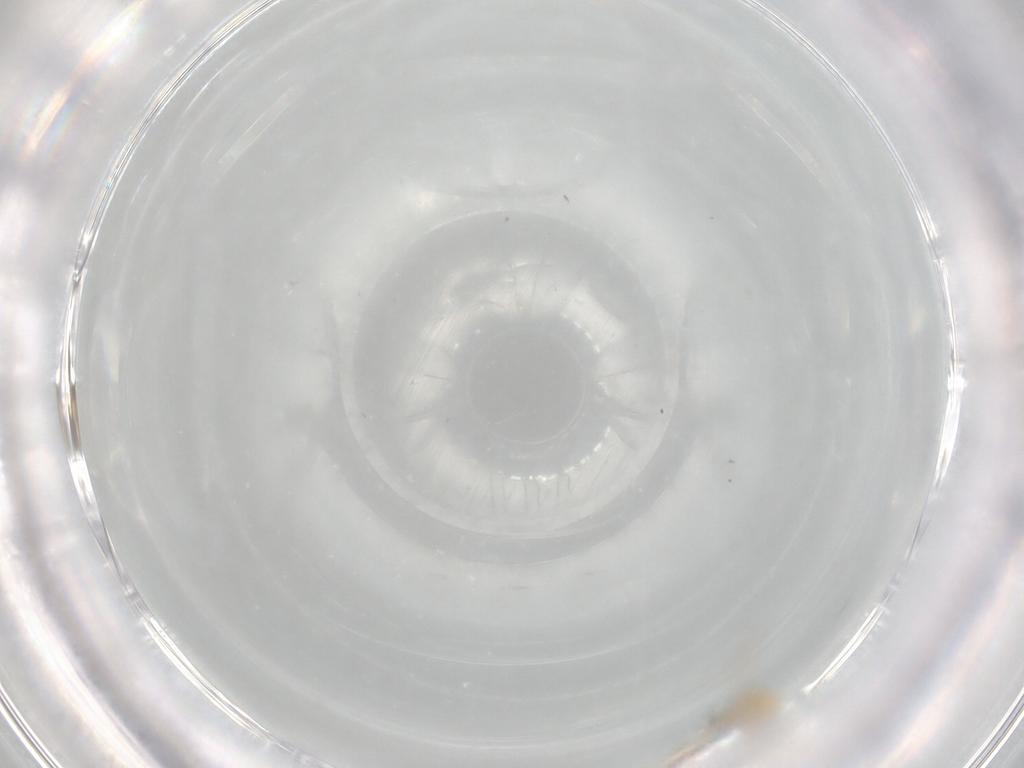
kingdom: Animalia
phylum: Arthropoda
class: Insecta
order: Diptera
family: Cecidomyiidae
